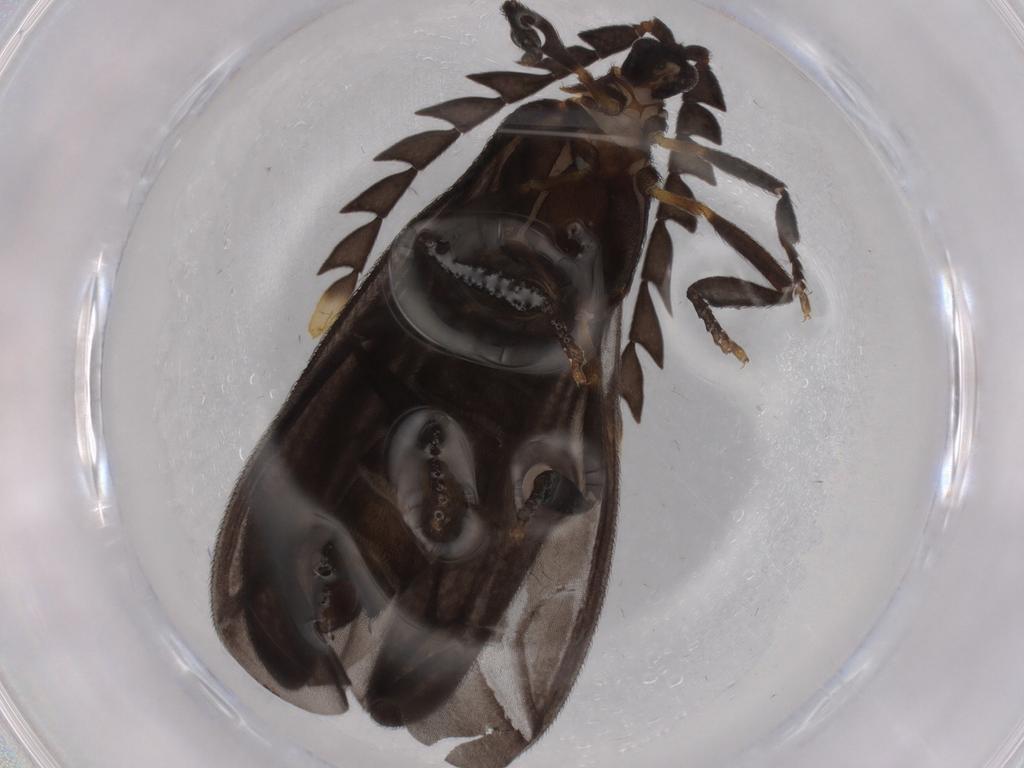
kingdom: Animalia
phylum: Arthropoda
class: Insecta
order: Coleoptera
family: Lycidae
